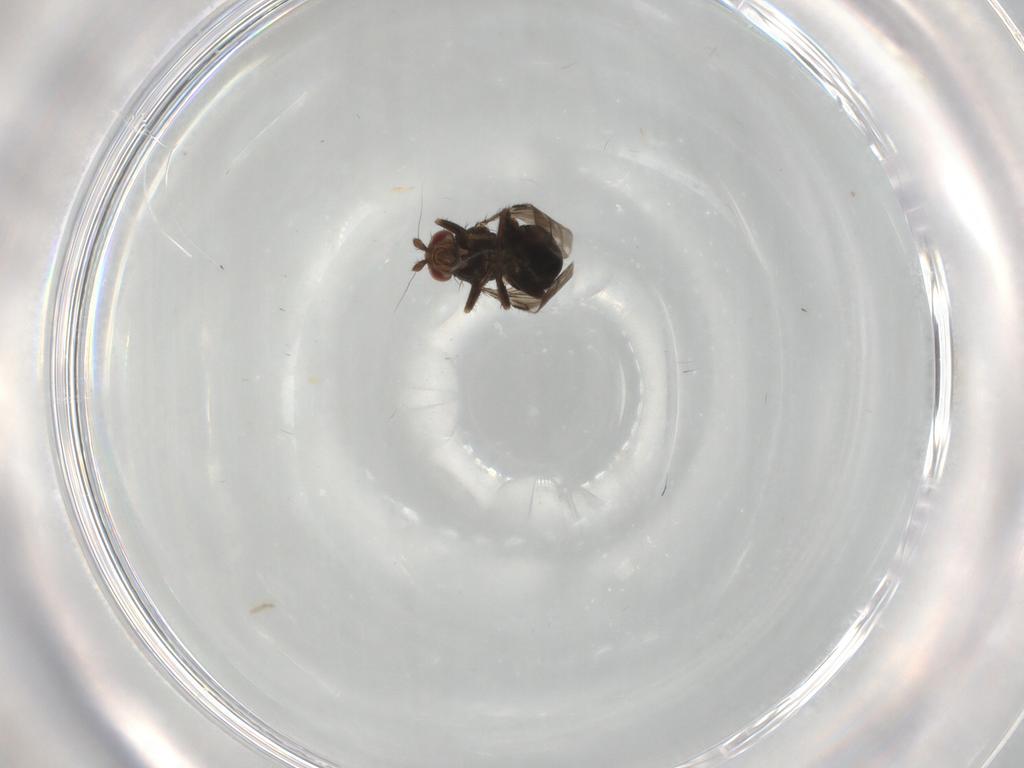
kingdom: Animalia
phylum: Arthropoda
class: Insecta
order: Diptera
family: Sphaeroceridae
